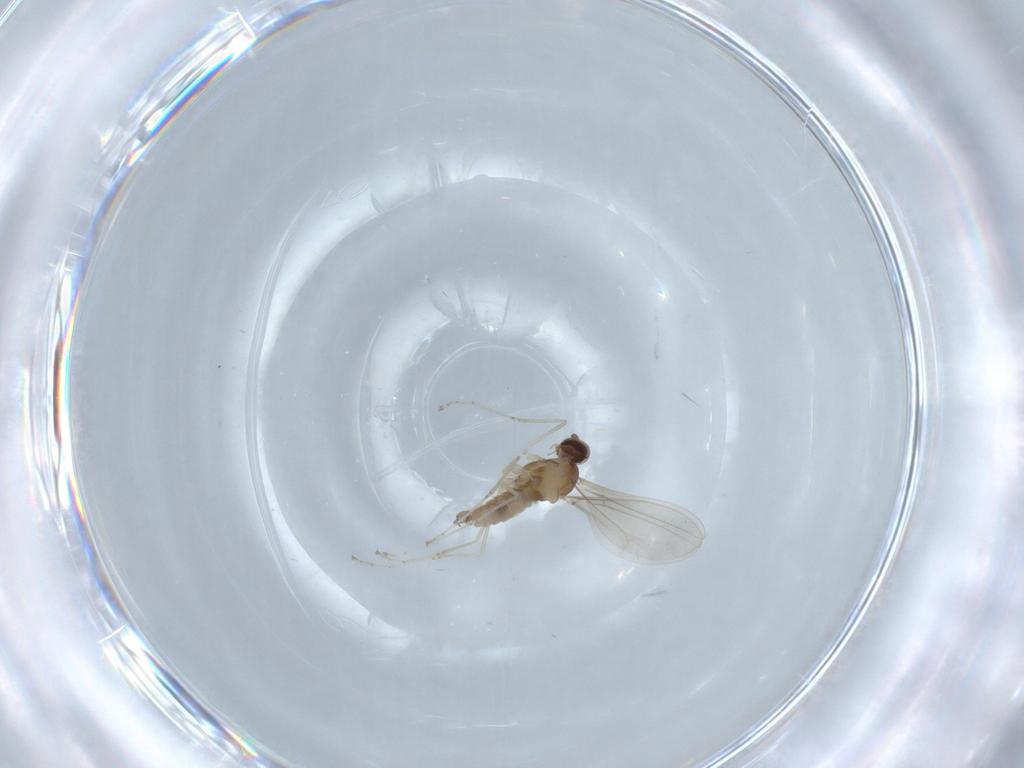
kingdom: Animalia
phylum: Arthropoda
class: Insecta
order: Diptera
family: Cecidomyiidae
